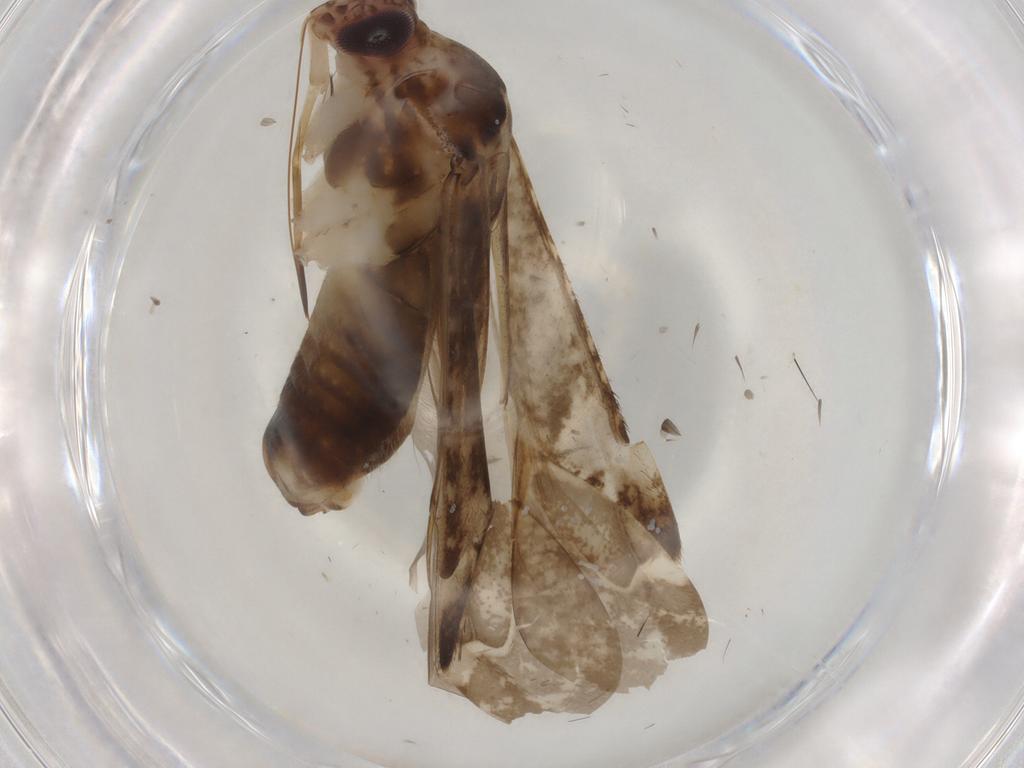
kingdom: Animalia
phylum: Arthropoda
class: Insecta
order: Hemiptera
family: Miridae
